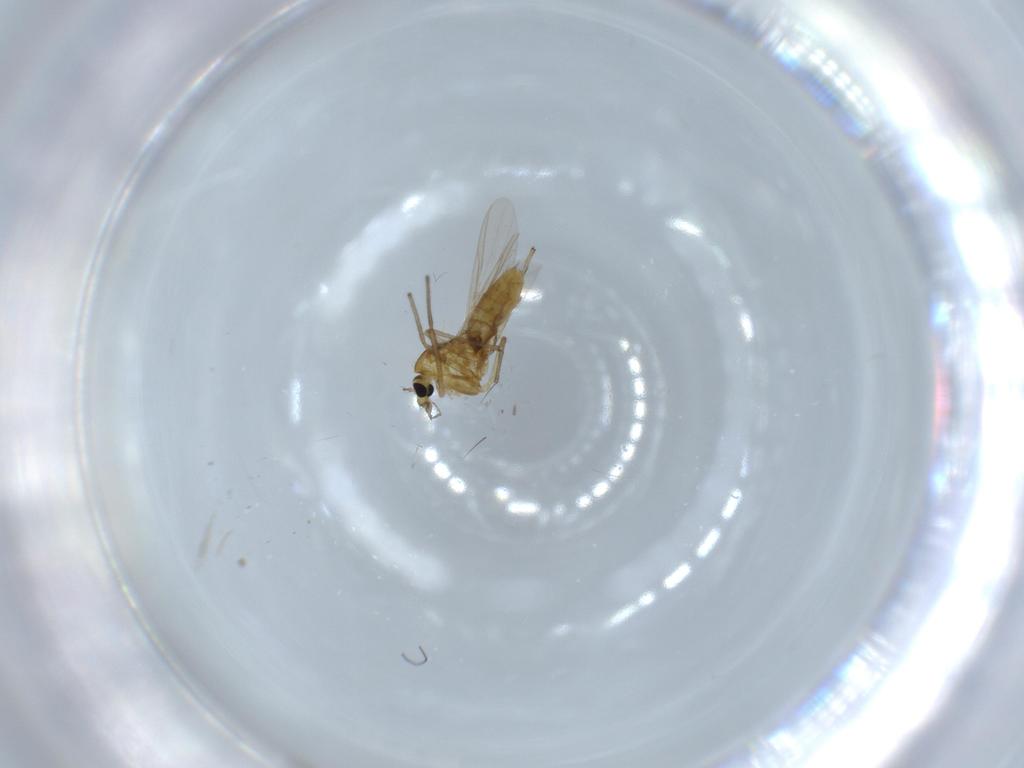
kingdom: Animalia
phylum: Arthropoda
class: Insecta
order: Diptera
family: Chironomidae
